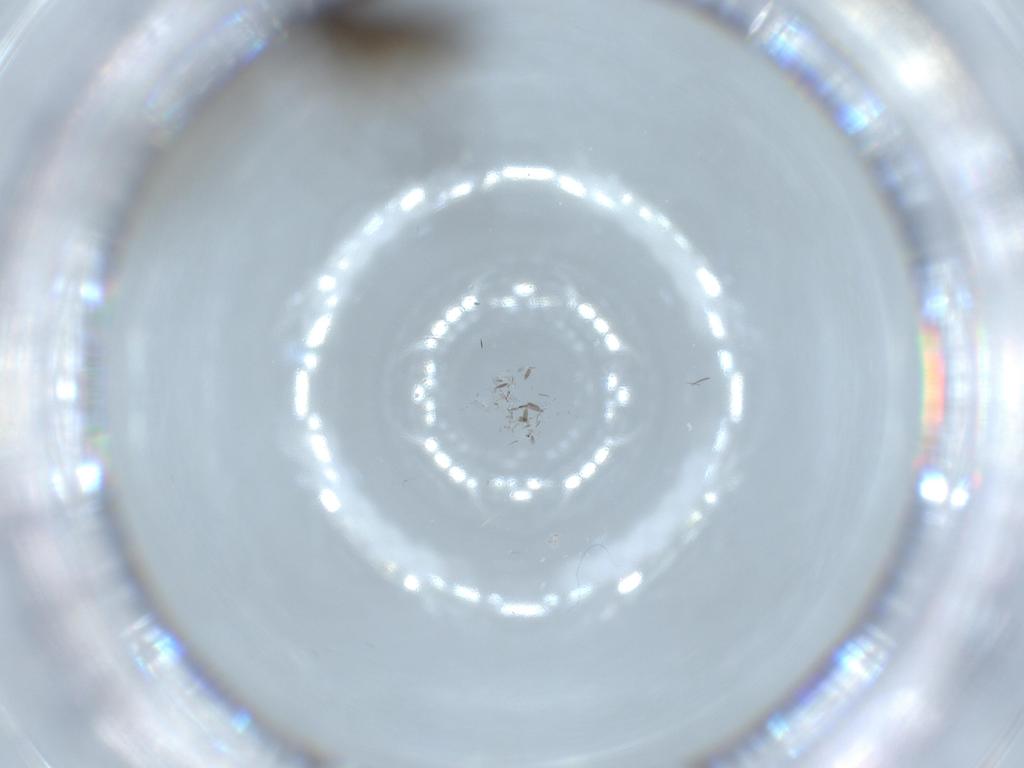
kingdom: Animalia
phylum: Arthropoda
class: Insecta
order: Diptera
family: Sciaridae
